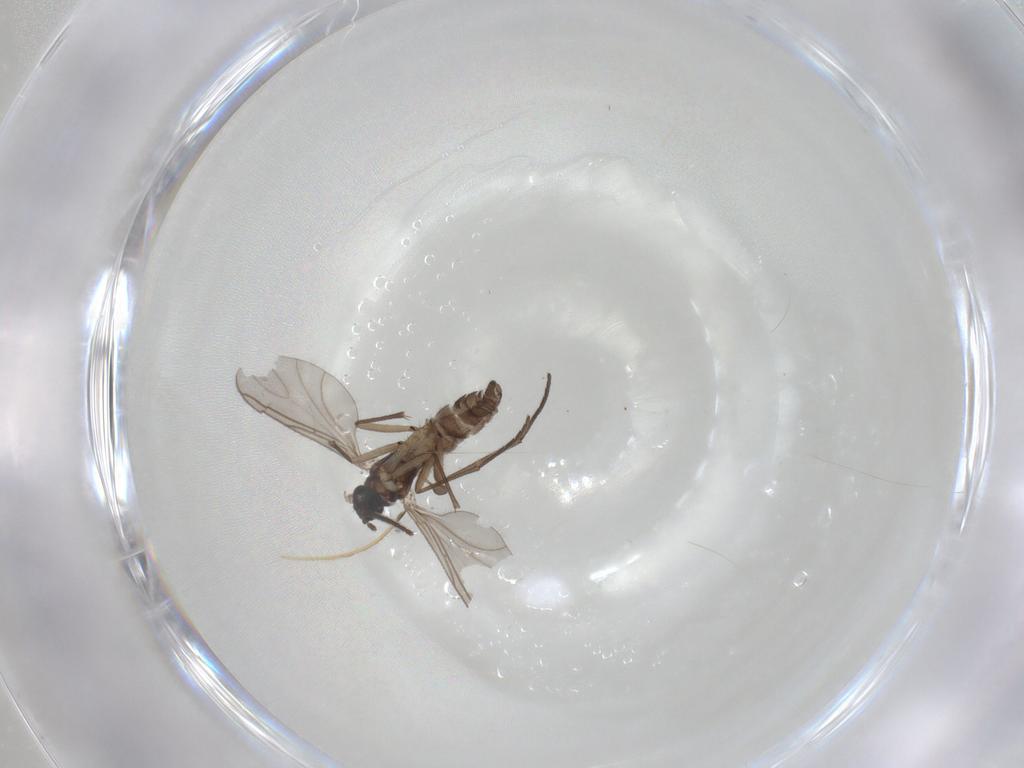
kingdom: Animalia
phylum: Arthropoda
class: Insecta
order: Diptera
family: Sciaridae
